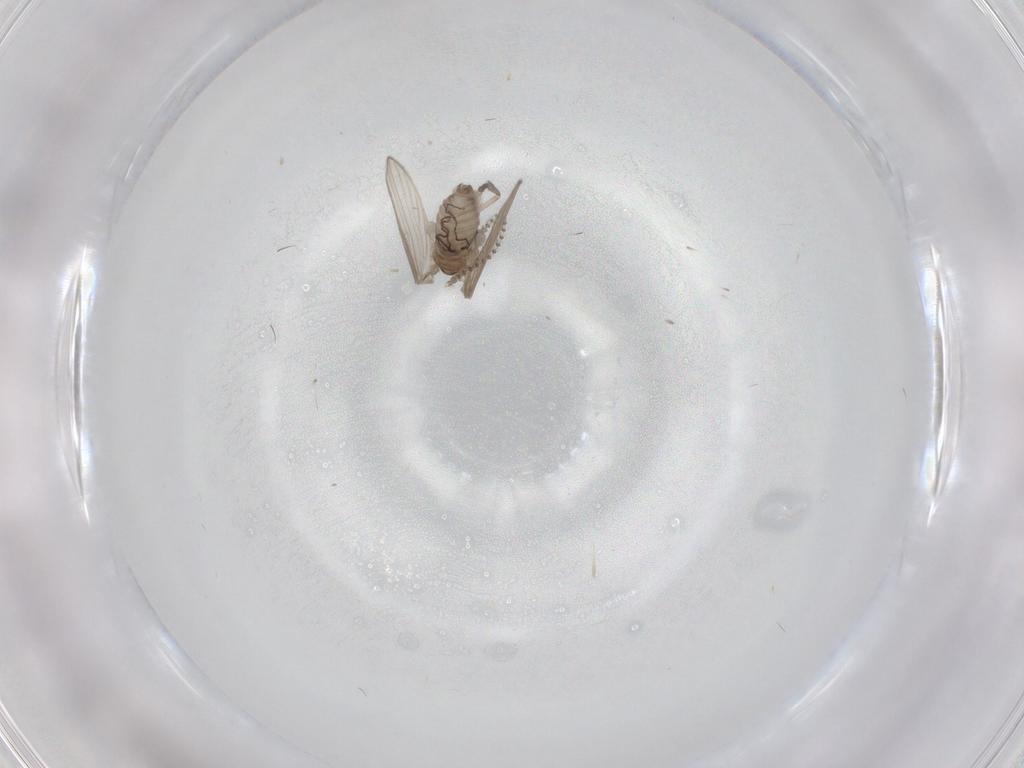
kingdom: Animalia
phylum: Arthropoda
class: Insecta
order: Diptera
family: Psychodidae
